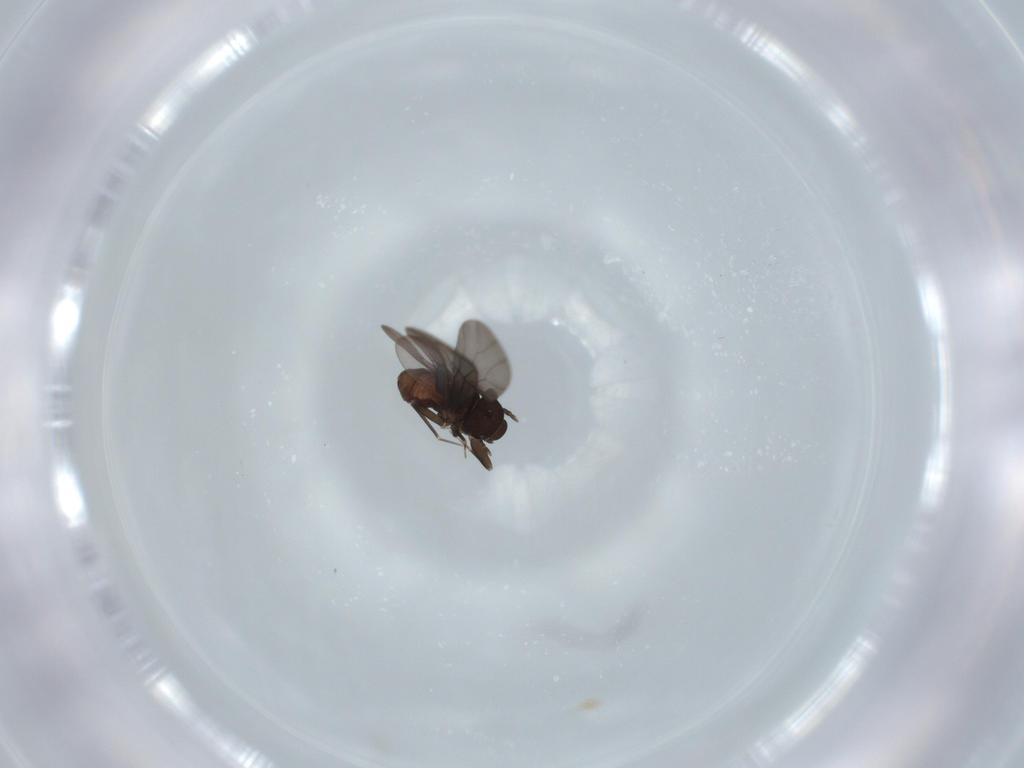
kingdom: Animalia
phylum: Arthropoda
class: Insecta
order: Psocodea
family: Lepidopsocidae
